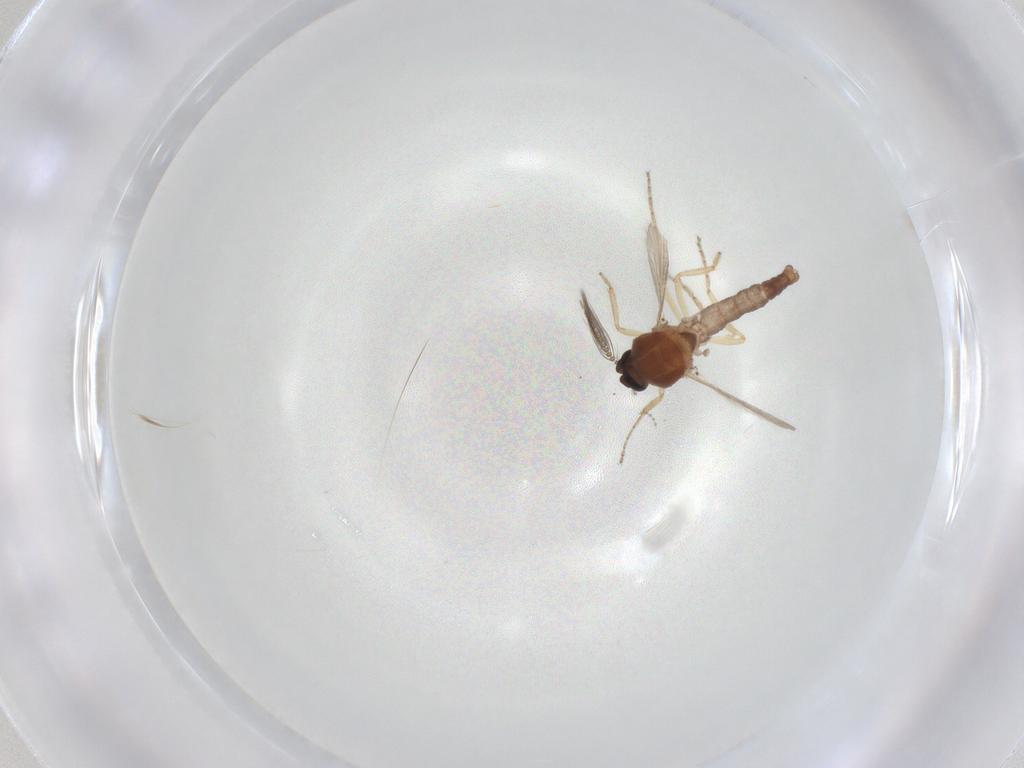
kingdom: Animalia
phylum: Arthropoda
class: Insecta
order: Diptera
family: Ceratopogonidae
